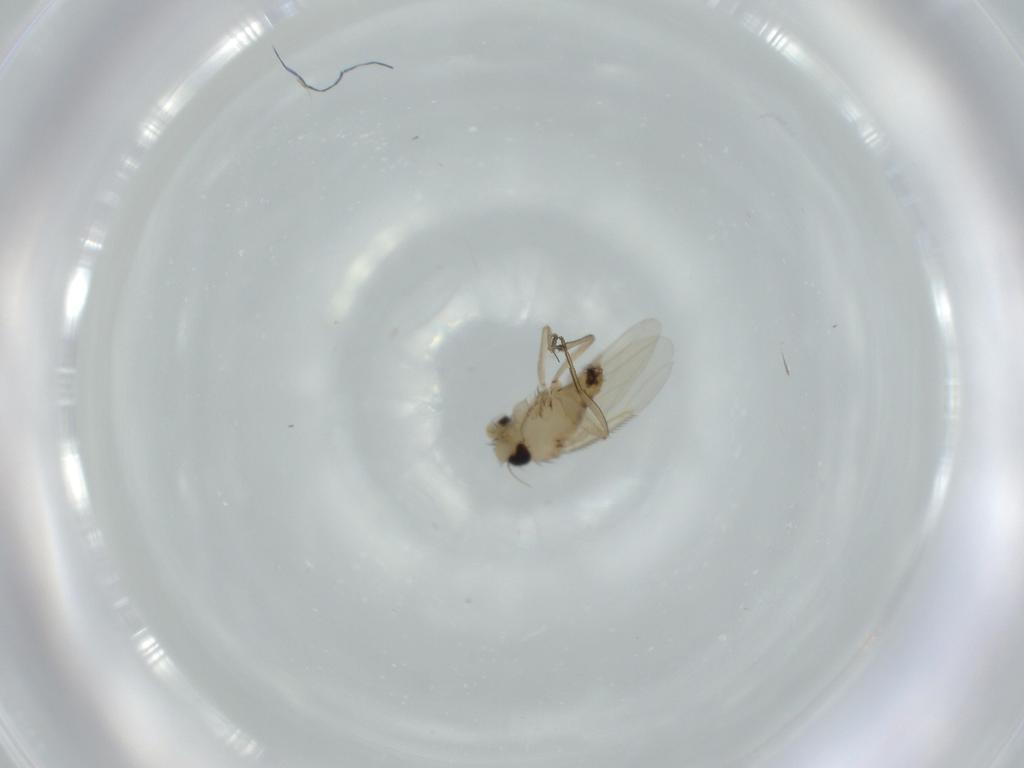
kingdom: Animalia
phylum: Arthropoda
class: Insecta
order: Diptera
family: Phoridae
